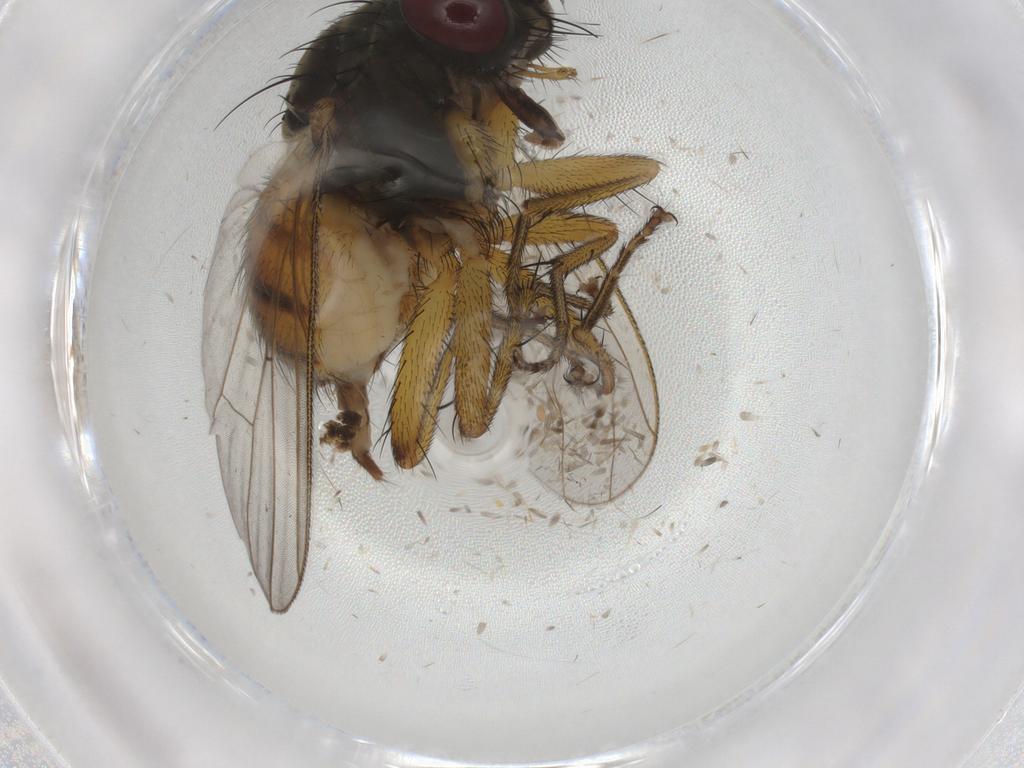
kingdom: Animalia
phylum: Arthropoda
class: Insecta
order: Diptera
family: Muscidae
